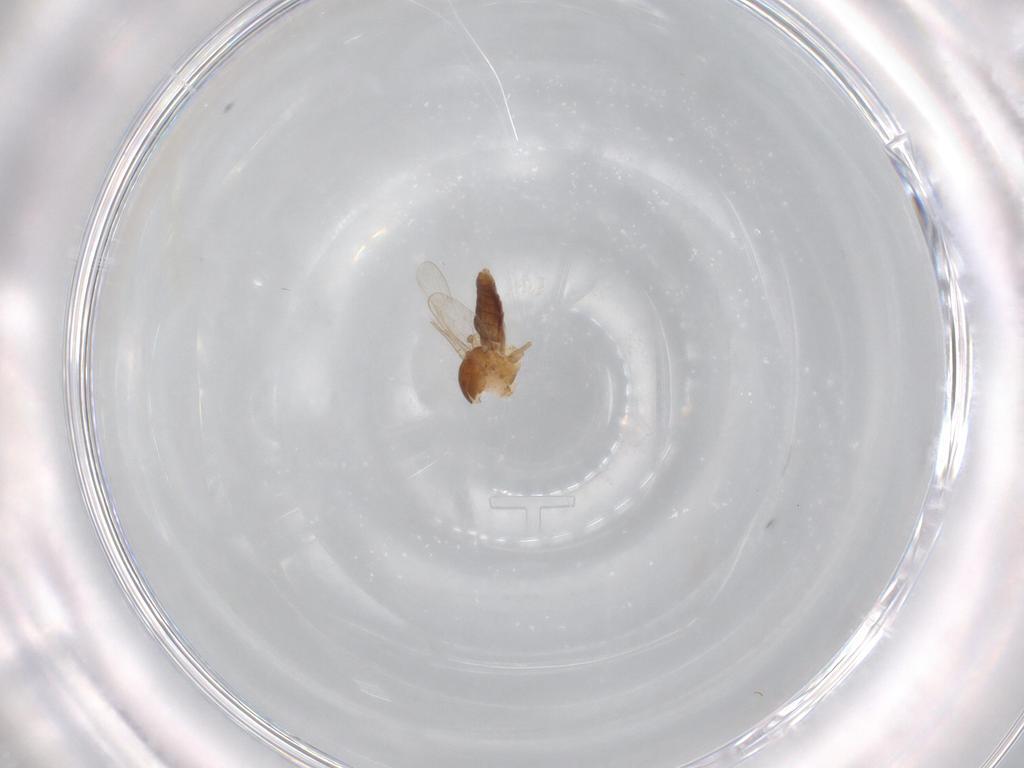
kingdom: Animalia
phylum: Arthropoda
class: Insecta
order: Diptera
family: Ceratopogonidae
